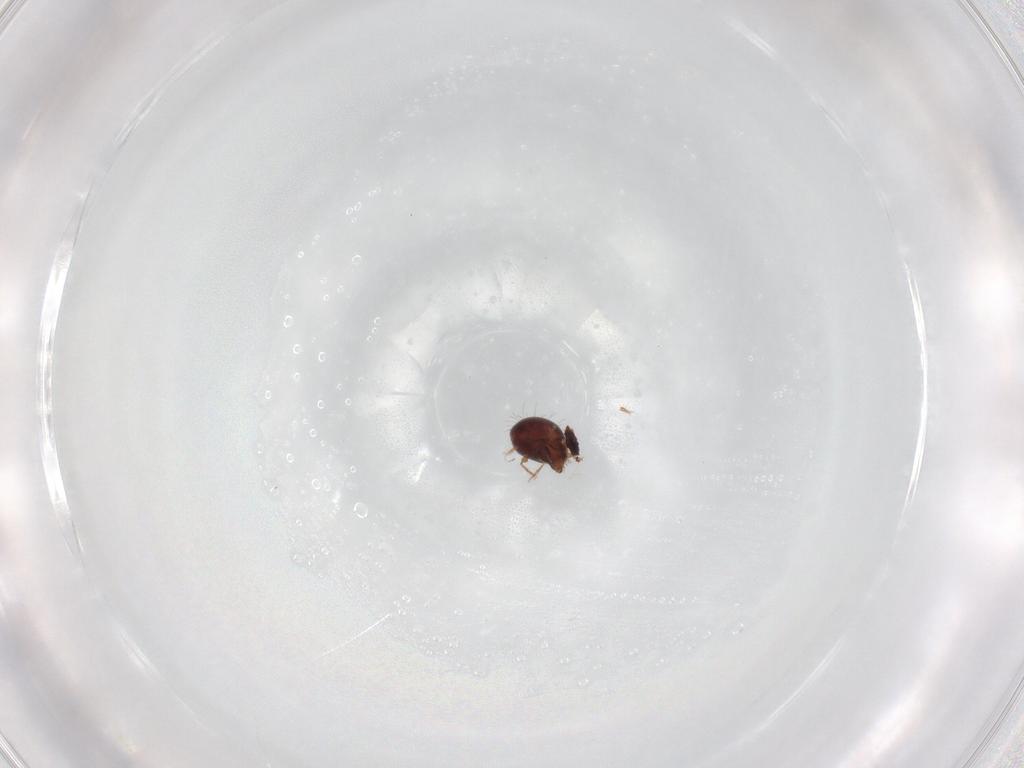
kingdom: Animalia
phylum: Arthropoda
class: Arachnida
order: Sarcoptiformes
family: Humerobatidae
